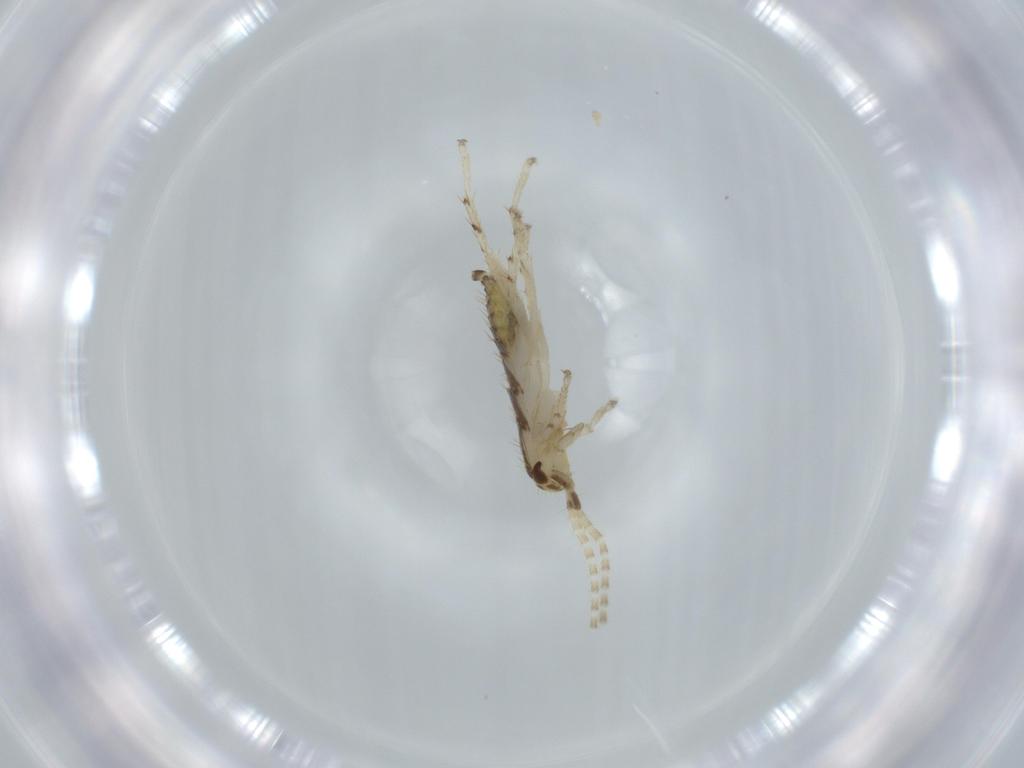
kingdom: Animalia
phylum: Arthropoda
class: Insecta
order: Blattodea
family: Ectobiidae
